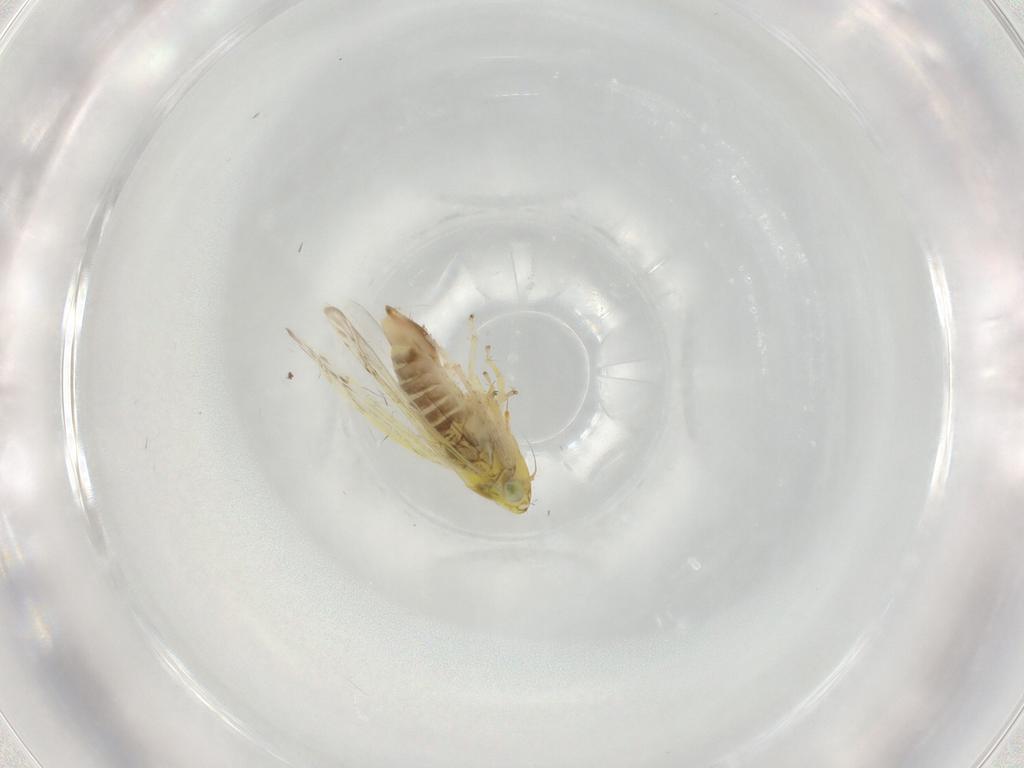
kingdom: Animalia
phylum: Arthropoda
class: Insecta
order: Hemiptera
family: Cicadellidae
